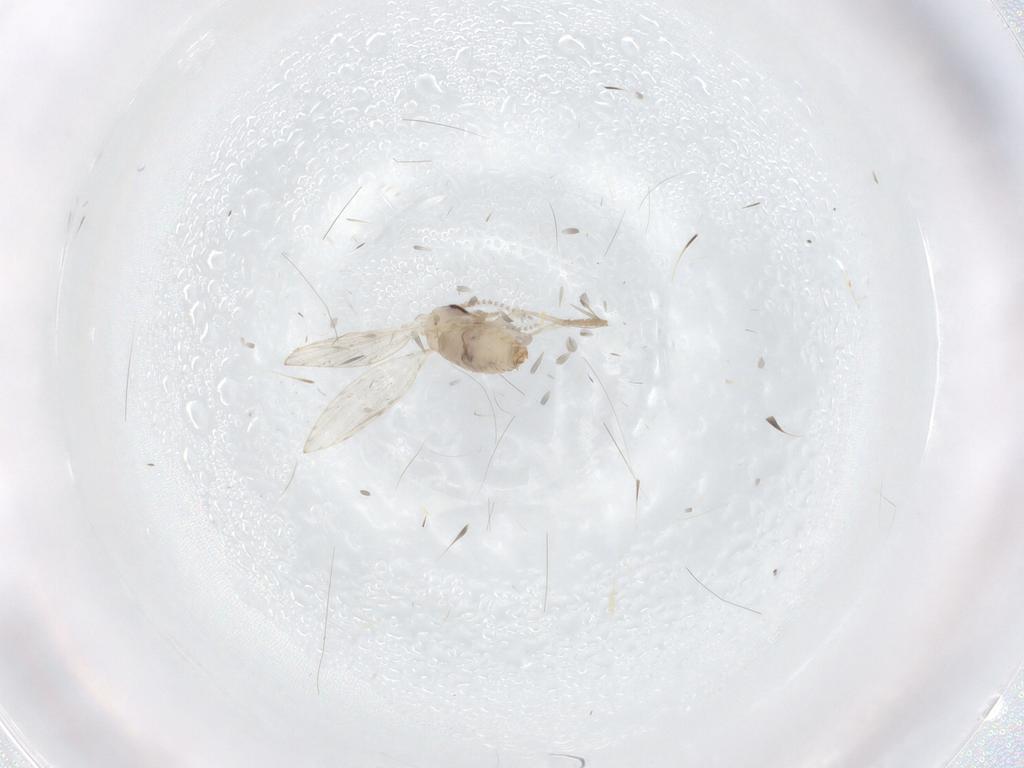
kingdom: Animalia
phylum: Arthropoda
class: Insecta
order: Diptera
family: Psychodidae
